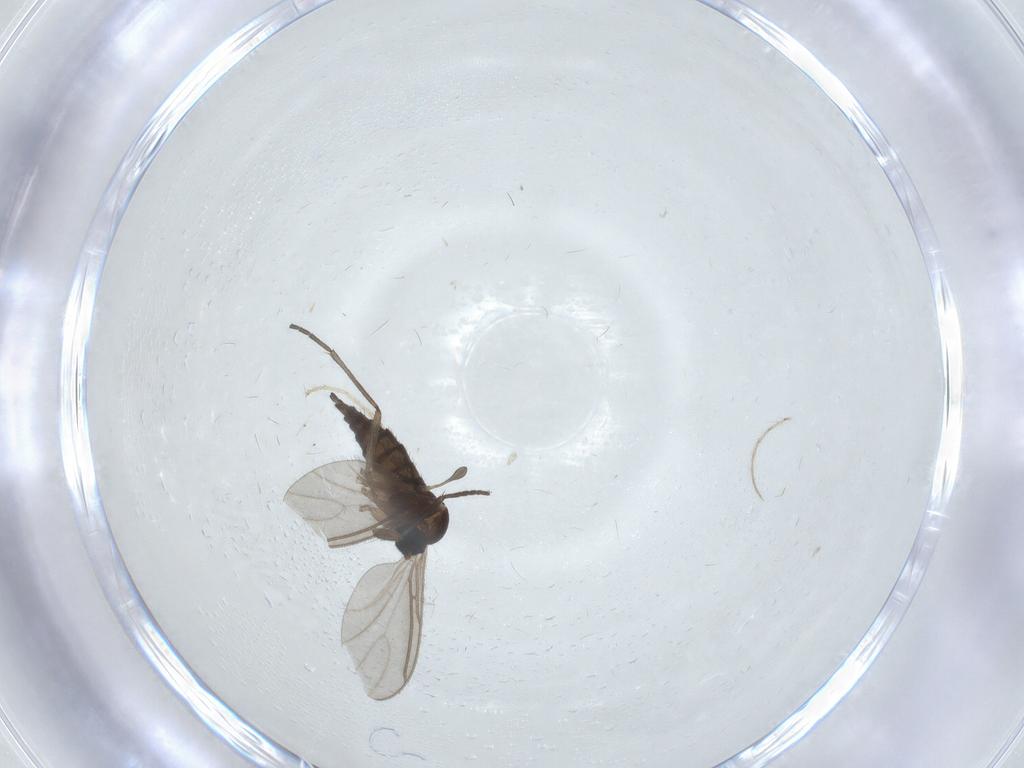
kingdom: Animalia
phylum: Arthropoda
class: Insecta
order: Diptera
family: Sciaridae
